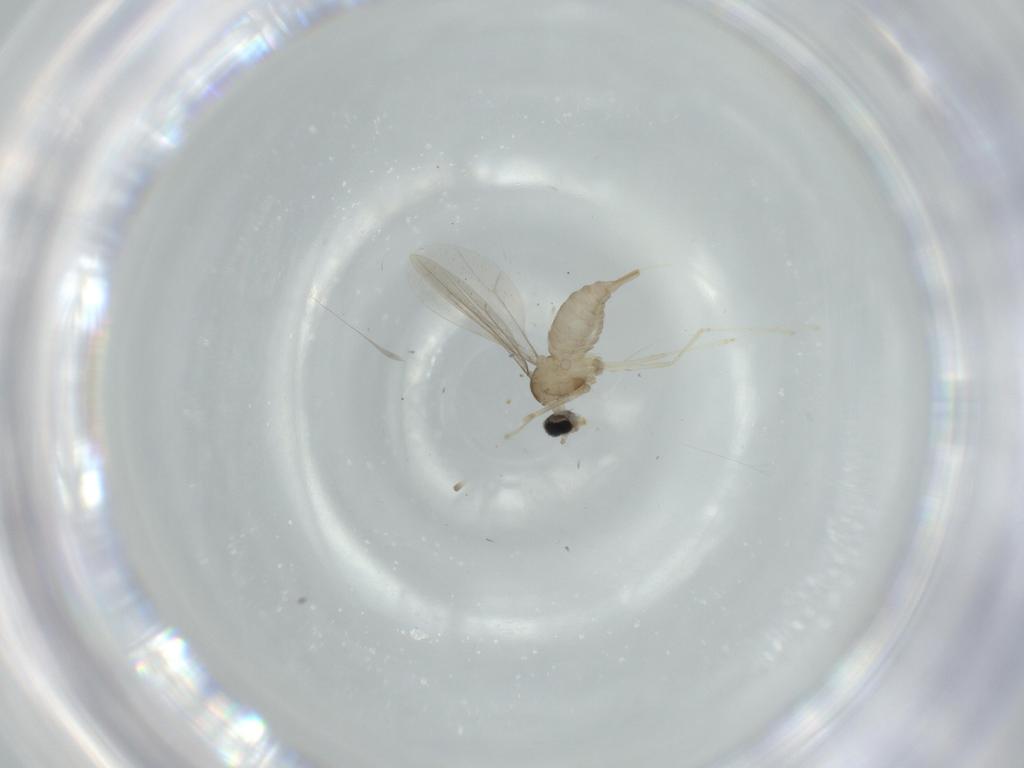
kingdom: Animalia
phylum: Arthropoda
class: Insecta
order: Diptera
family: Cecidomyiidae
